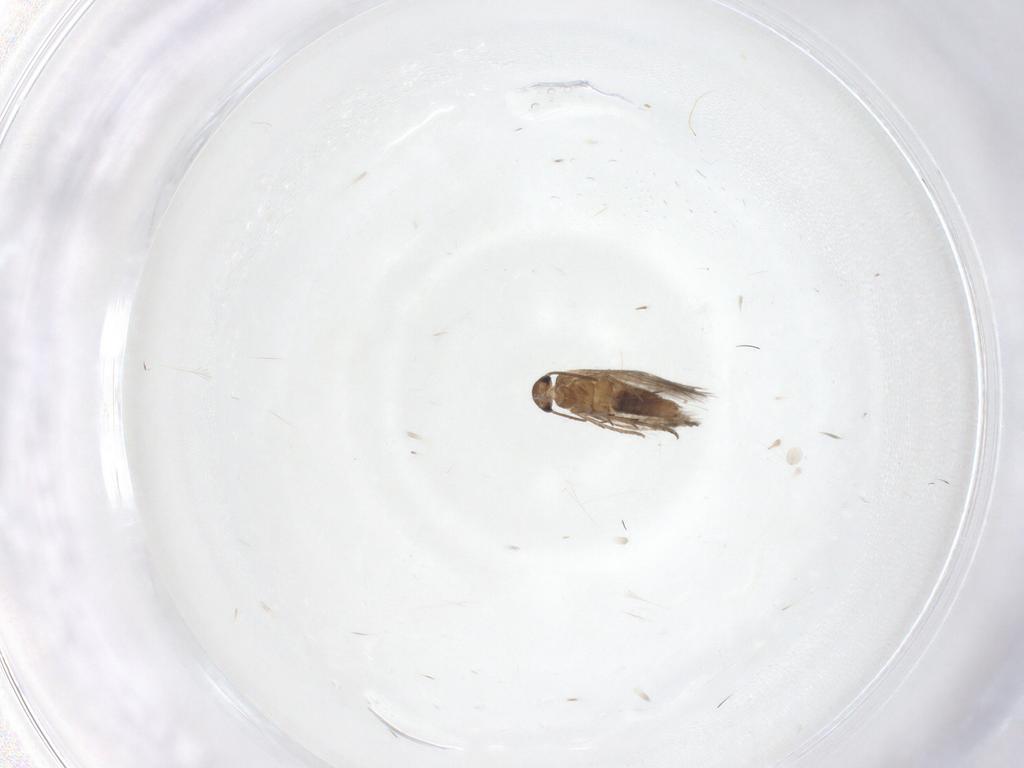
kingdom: Animalia
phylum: Arthropoda
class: Insecta
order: Lepidoptera
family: Heliozelidae
